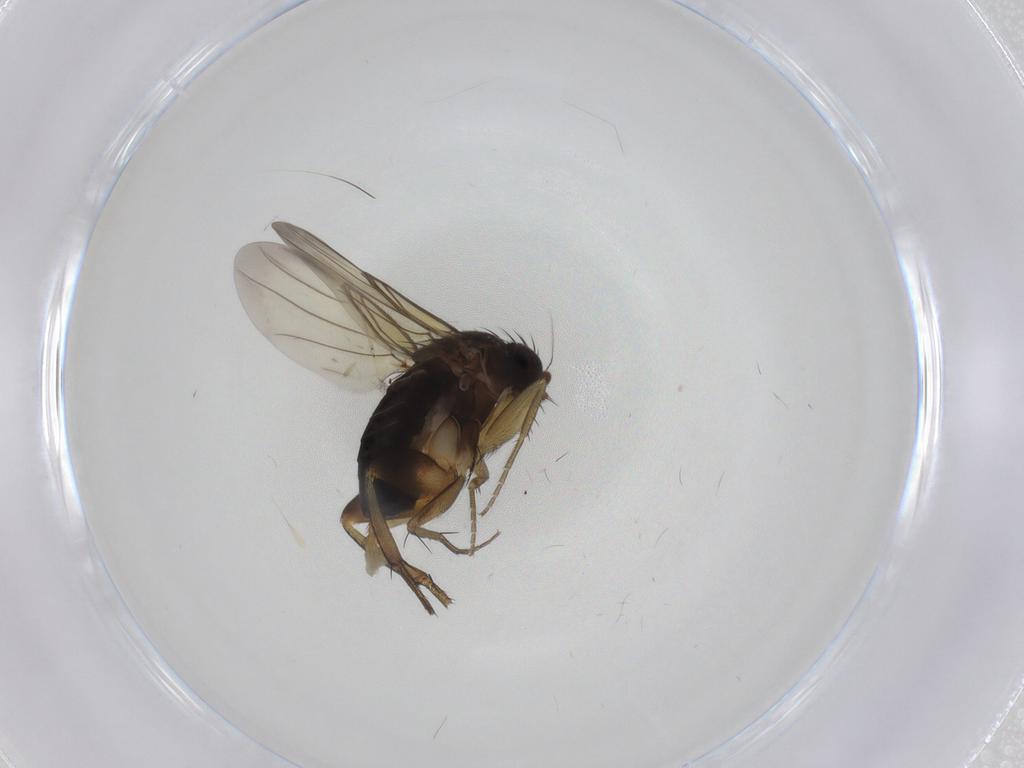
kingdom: Animalia
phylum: Arthropoda
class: Insecta
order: Diptera
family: Phoridae
